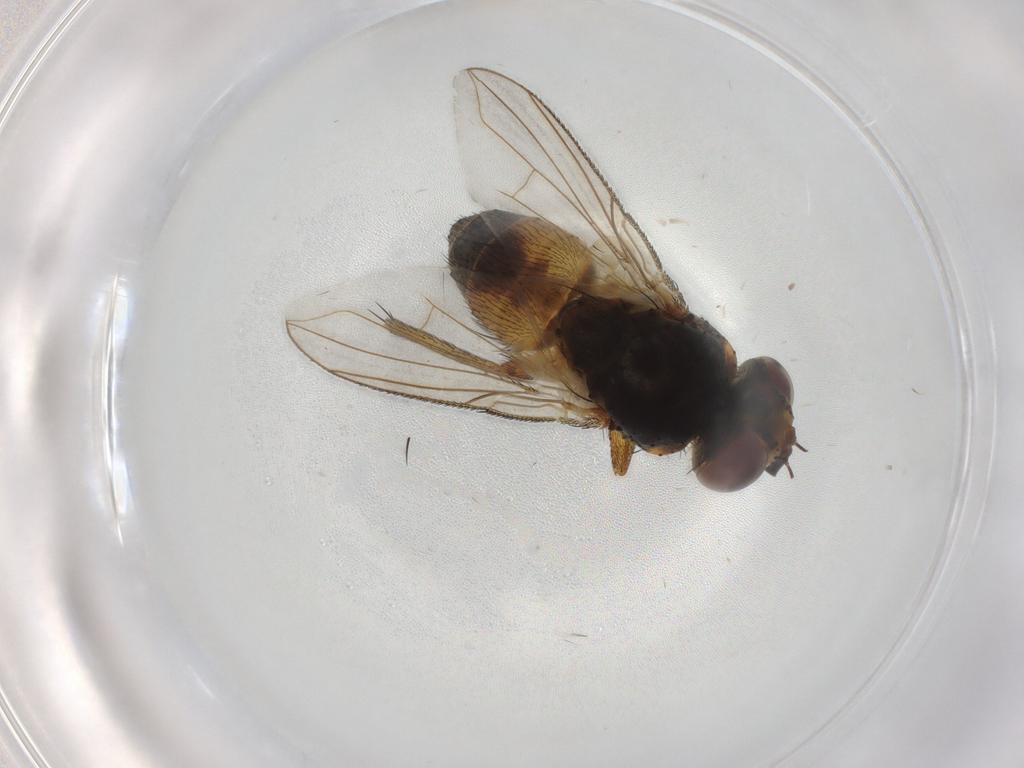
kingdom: Animalia
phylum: Arthropoda
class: Insecta
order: Diptera
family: Tachinidae
